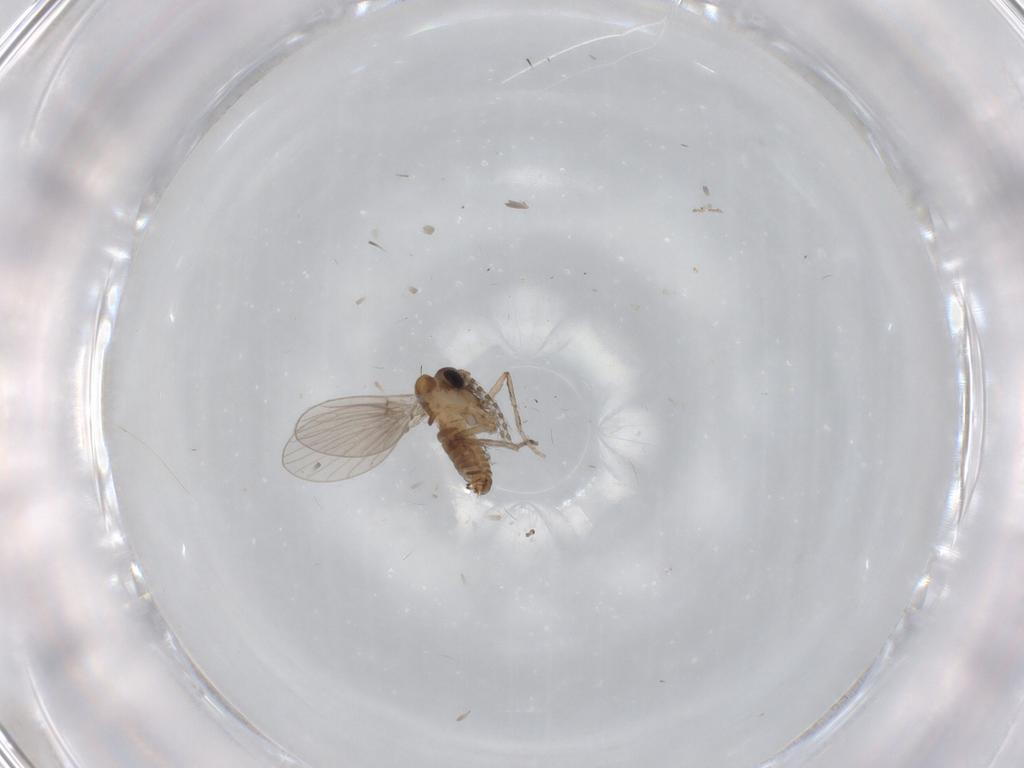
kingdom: Animalia
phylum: Arthropoda
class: Insecta
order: Diptera
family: Chironomidae
